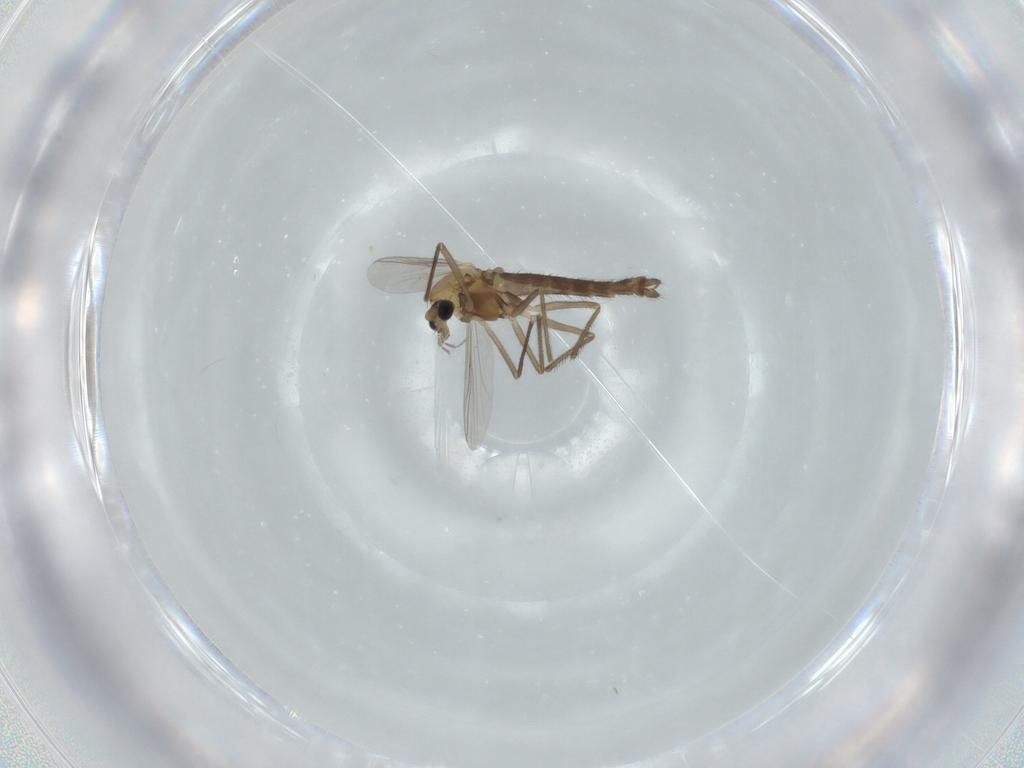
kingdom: Animalia
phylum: Arthropoda
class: Insecta
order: Diptera
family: Chironomidae
